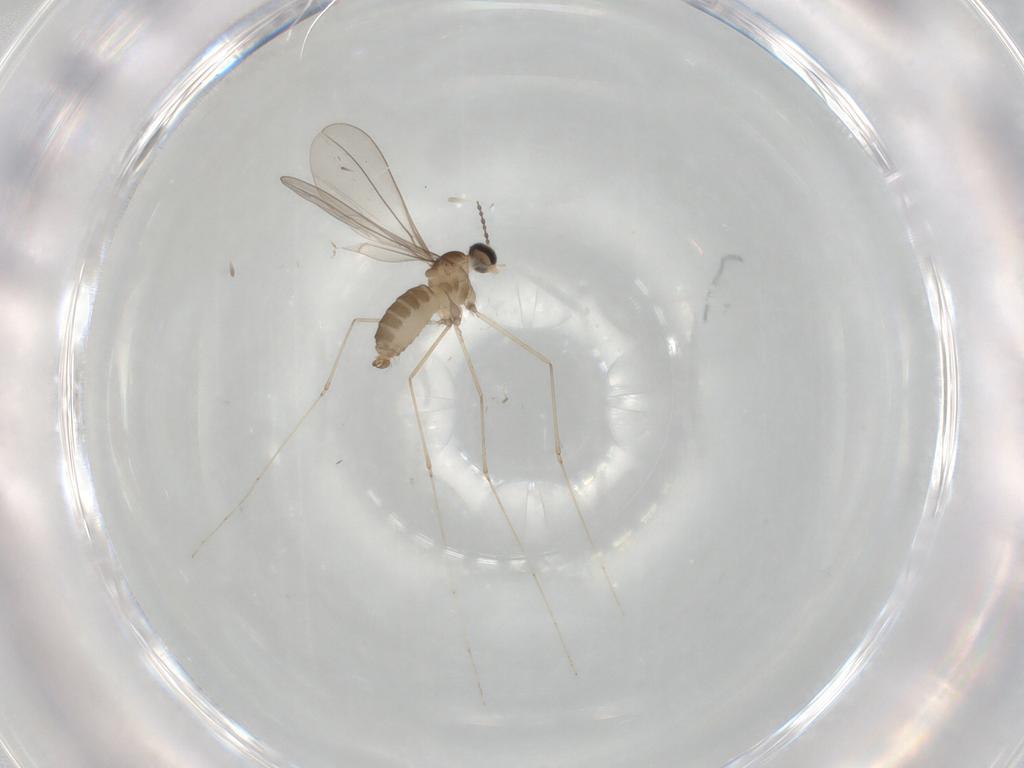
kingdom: Animalia
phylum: Arthropoda
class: Insecta
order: Diptera
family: Cecidomyiidae
